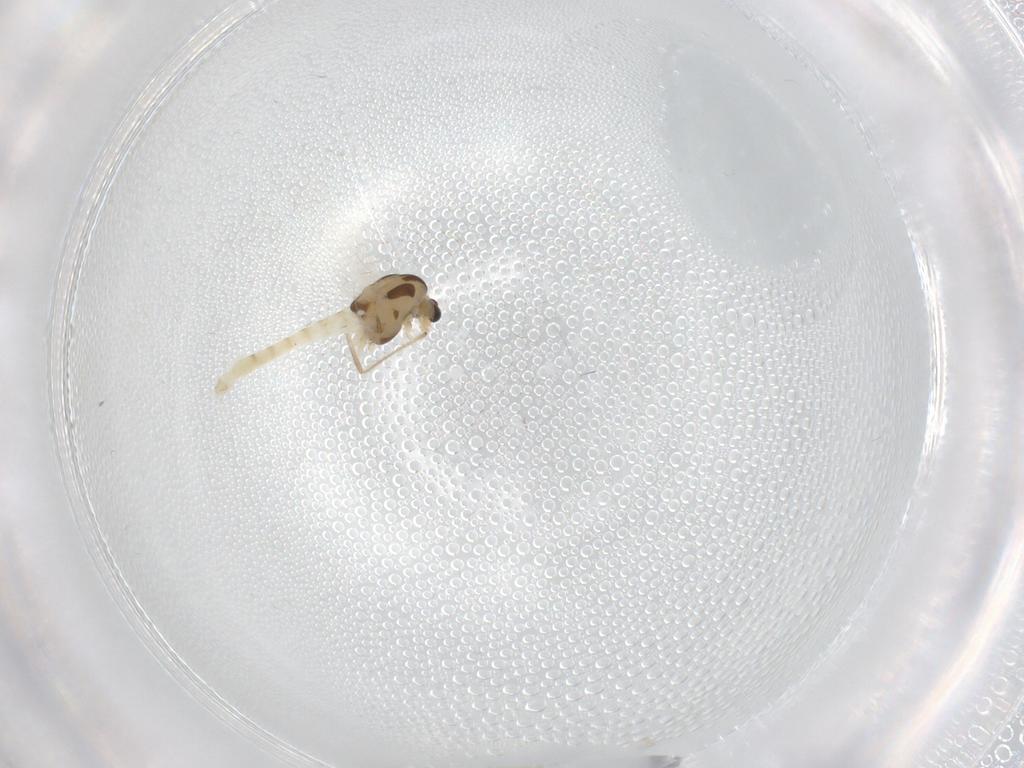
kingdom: Animalia
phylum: Arthropoda
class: Insecta
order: Diptera
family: Chironomidae
